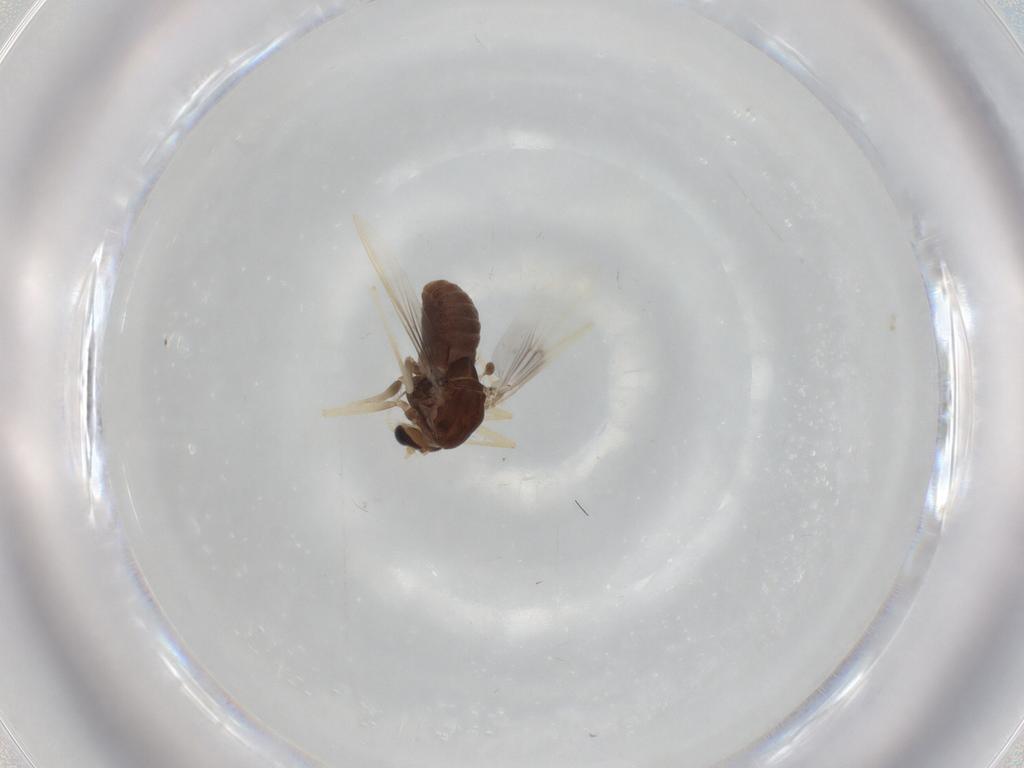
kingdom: Animalia
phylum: Arthropoda
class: Insecta
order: Diptera
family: Chironomidae
